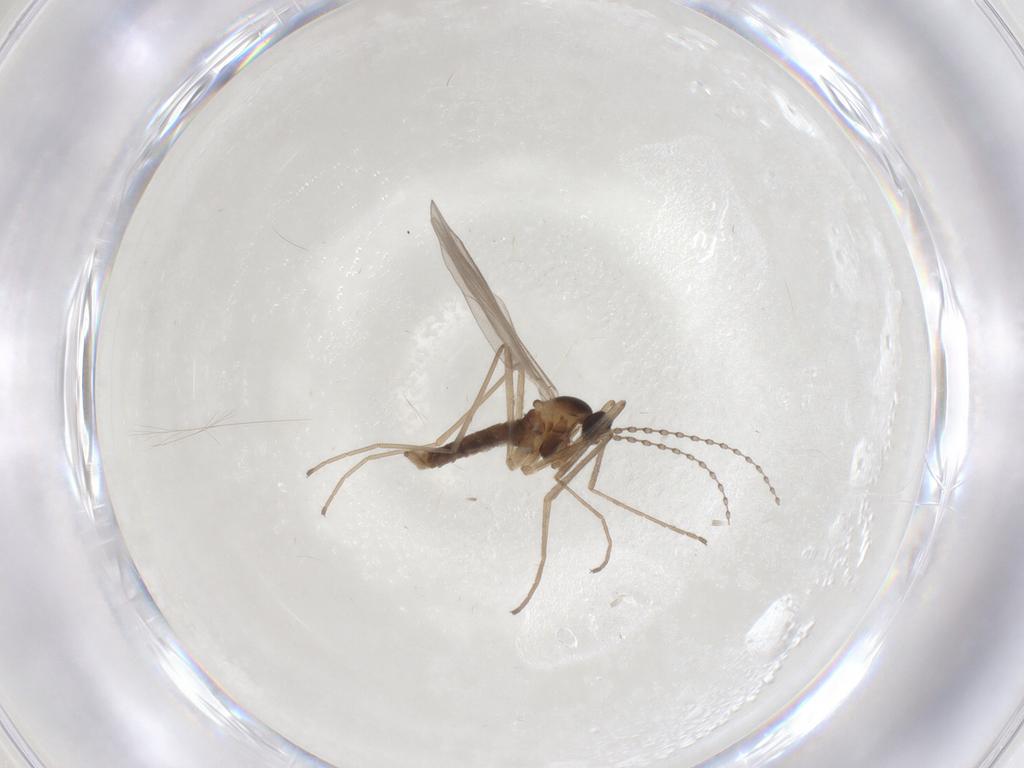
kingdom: Animalia
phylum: Arthropoda
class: Insecta
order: Diptera
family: Cecidomyiidae
